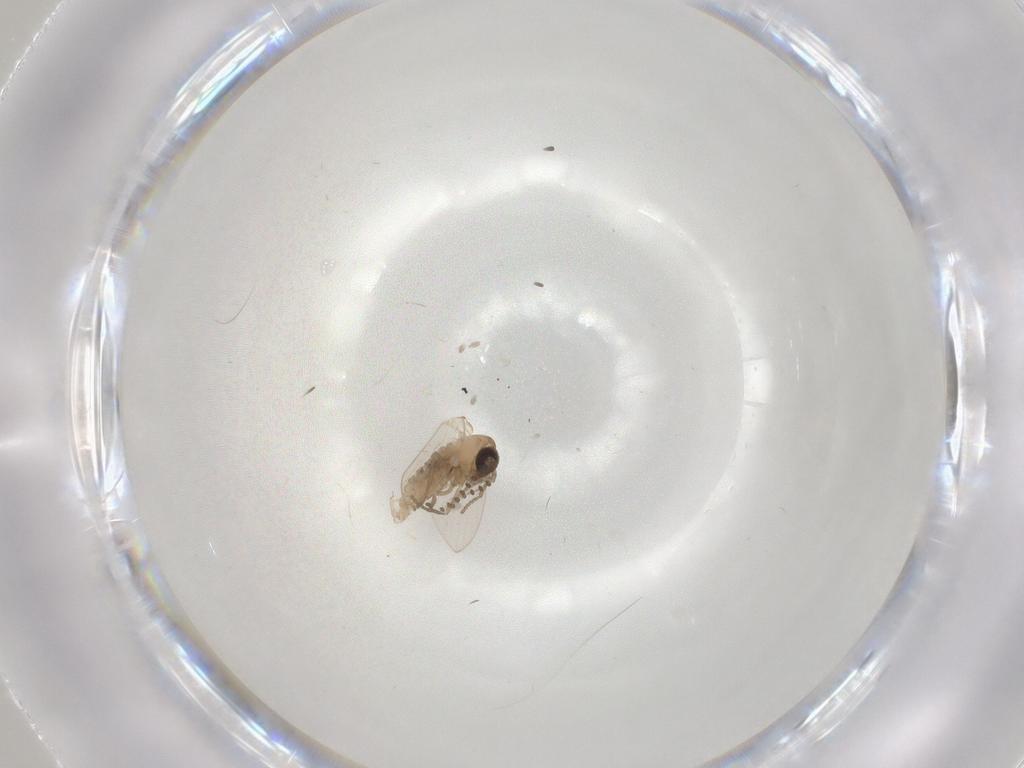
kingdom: Animalia
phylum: Arthropoda
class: Insecta
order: Diptera
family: Psychodidae
